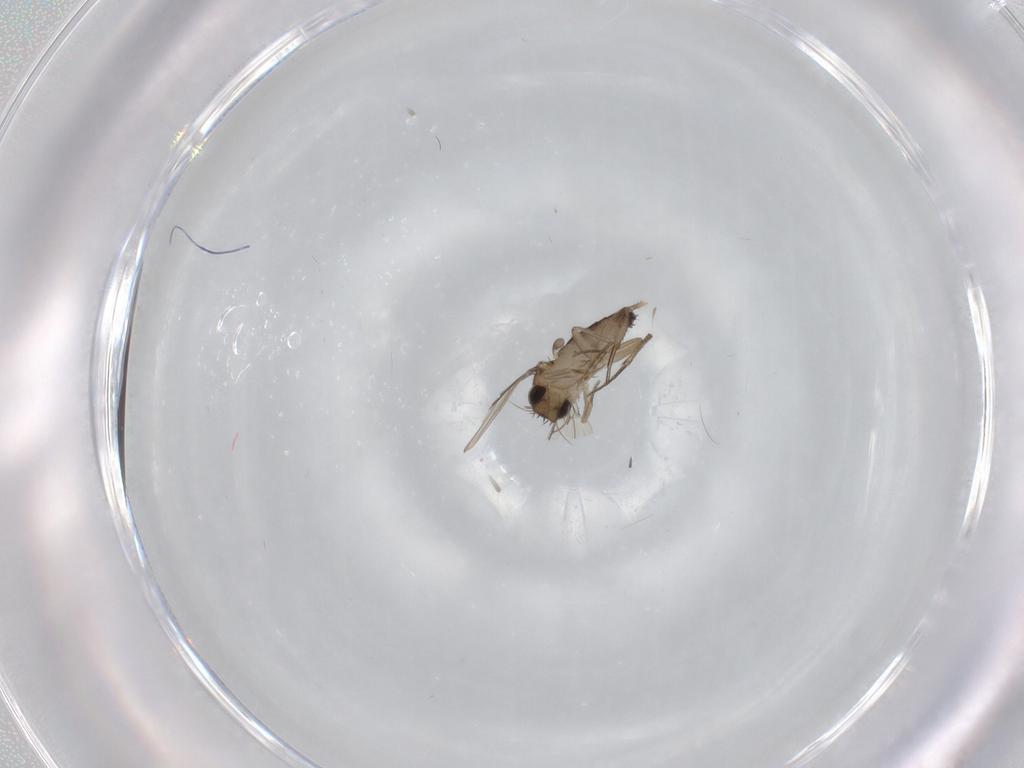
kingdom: Animalia
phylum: Arthropoda
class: Insecta
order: Diptera
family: Phoridae
